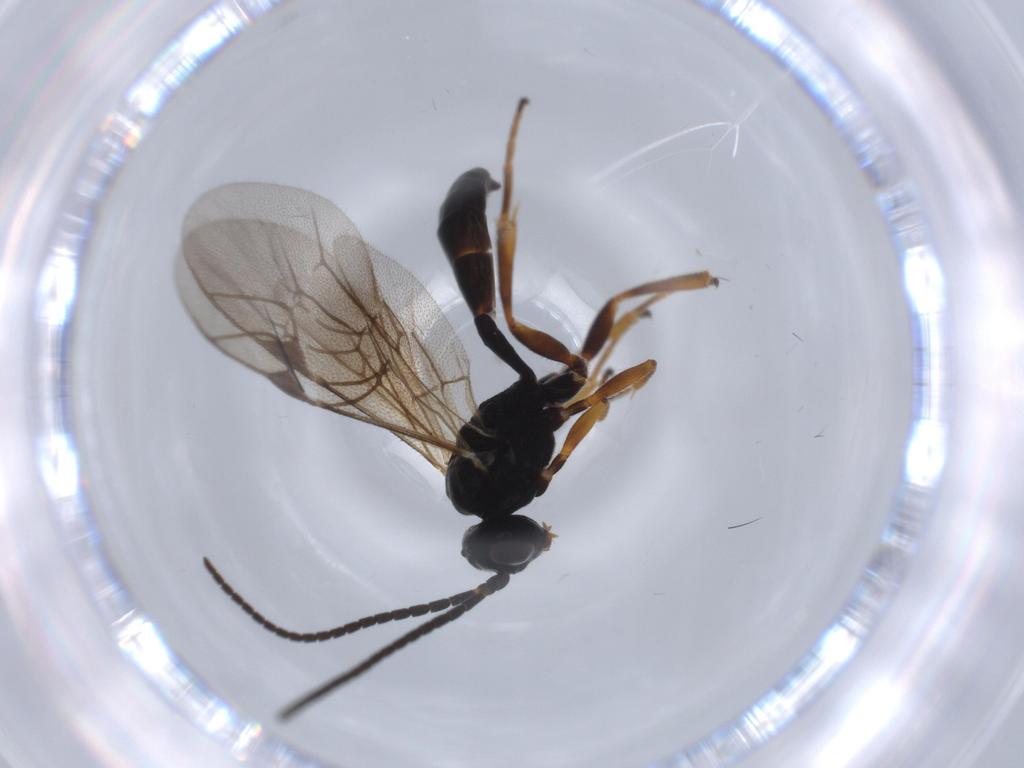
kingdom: Animalia
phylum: Arthropoda
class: Insecta
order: Hymenoptera
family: Ichneumonidae
